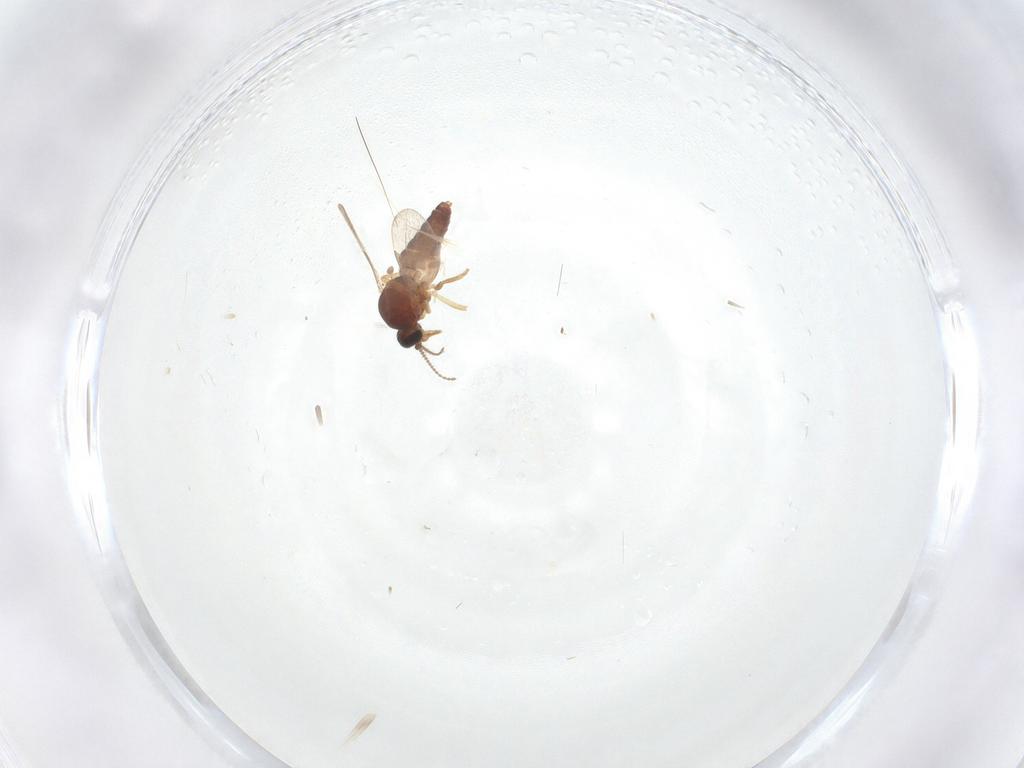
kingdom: Animalia
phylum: Arthropoda
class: Insecta
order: Diptera
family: Ceratopogonidae
